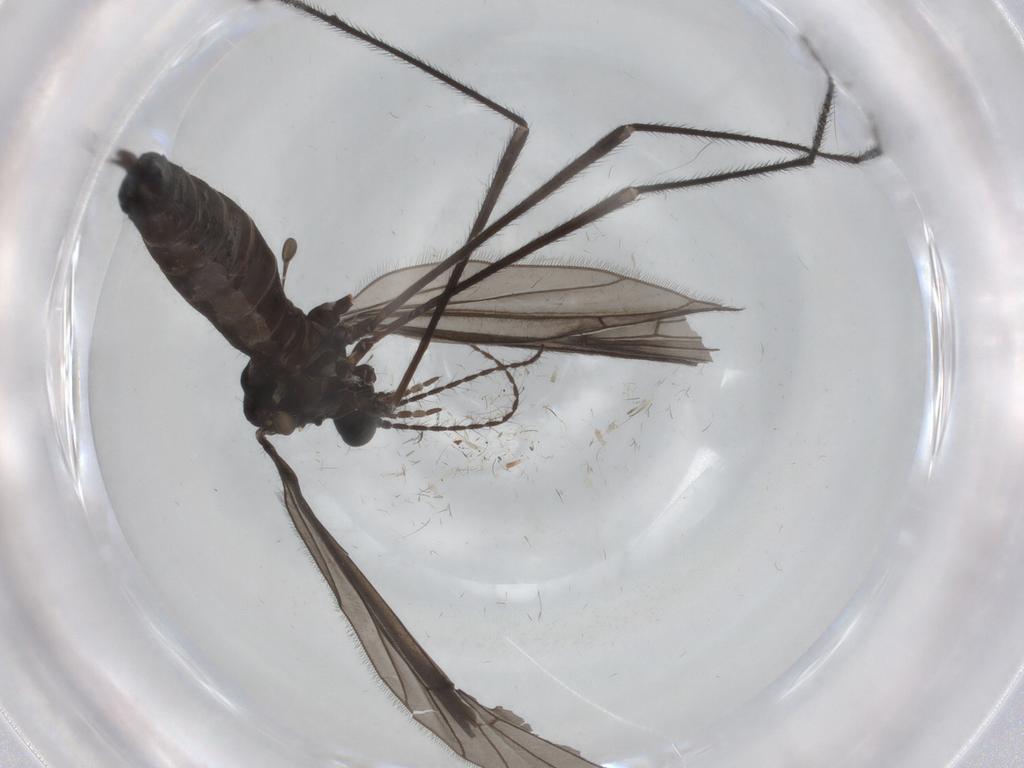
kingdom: Animalia
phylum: Arthropoda
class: Insecta
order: Diptera
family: Limoniidae
